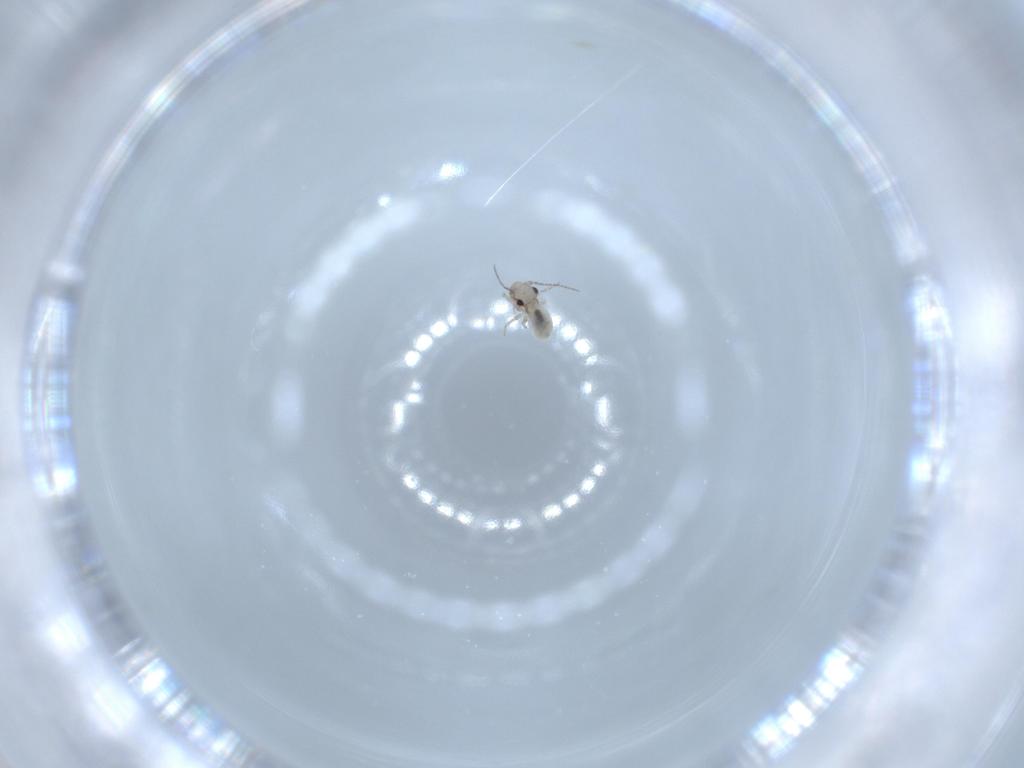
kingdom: Animalia
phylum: Arthropoda
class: Insecta
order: Psocodea
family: Lepidopsocidae
